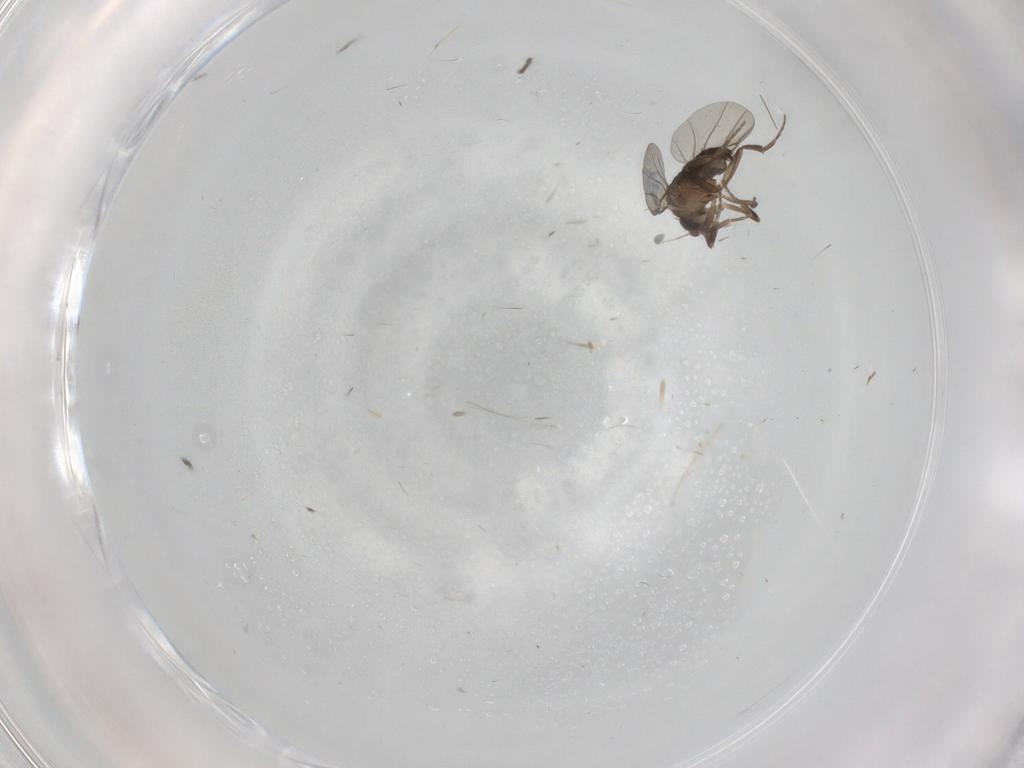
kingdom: Animalia
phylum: Arthropoda
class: Insecta
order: Diptera
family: Sciaridae
